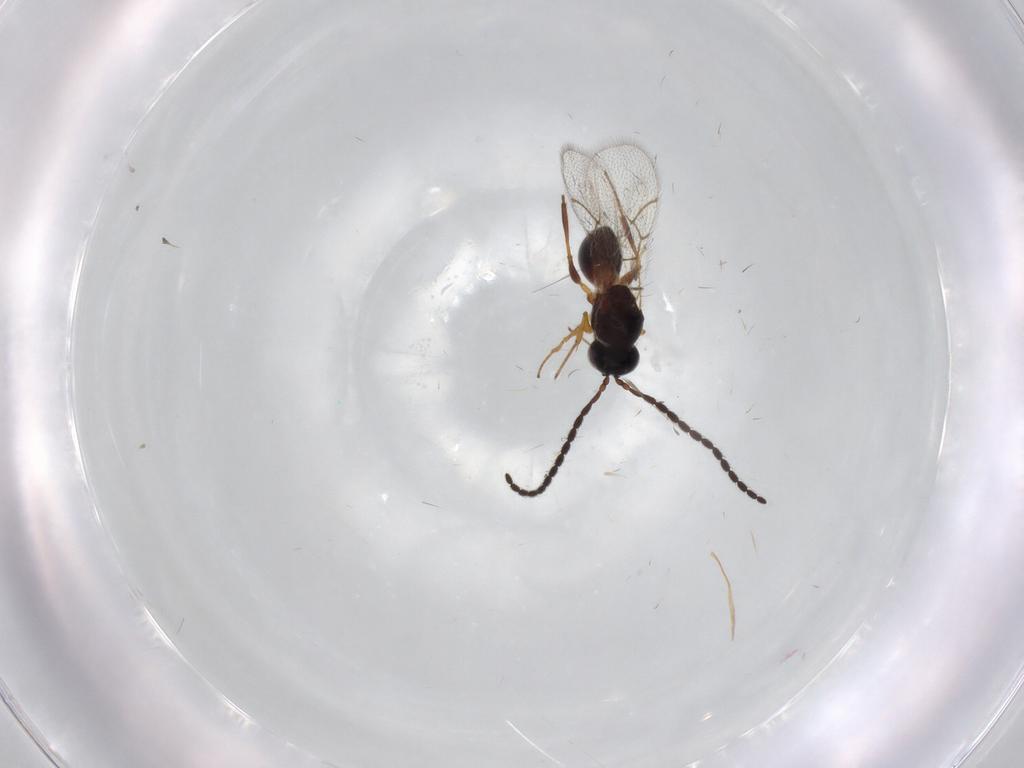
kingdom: Animalia
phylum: Arthropoda
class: Insecta
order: Hymenoptera
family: Figitidae
